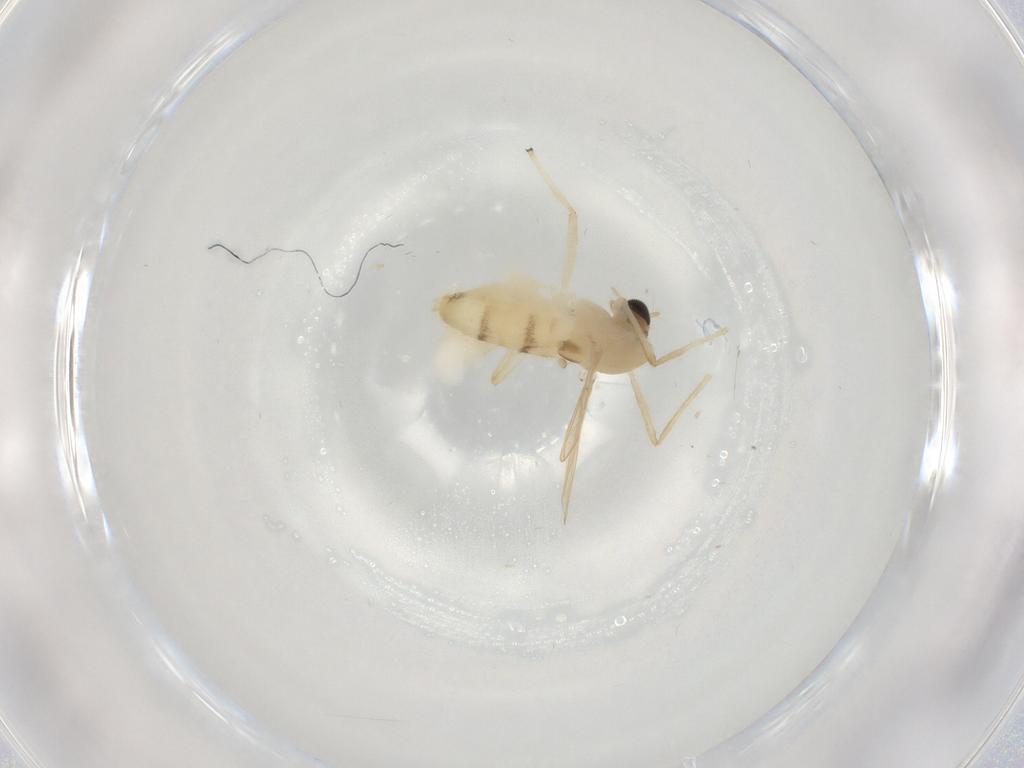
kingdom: Animalia
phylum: Arthropoda
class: Insecta
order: Diptera
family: Chironomidae
